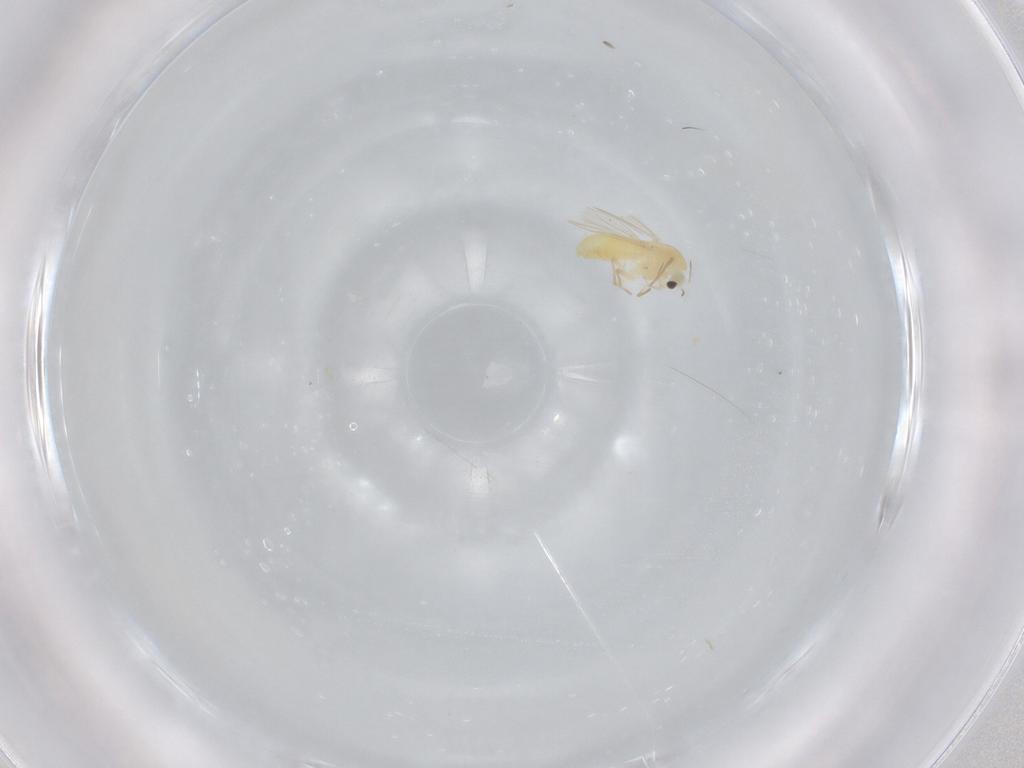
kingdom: Animalia
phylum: Arthropoda
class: Insecta
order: Diptera
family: Chironomidae
